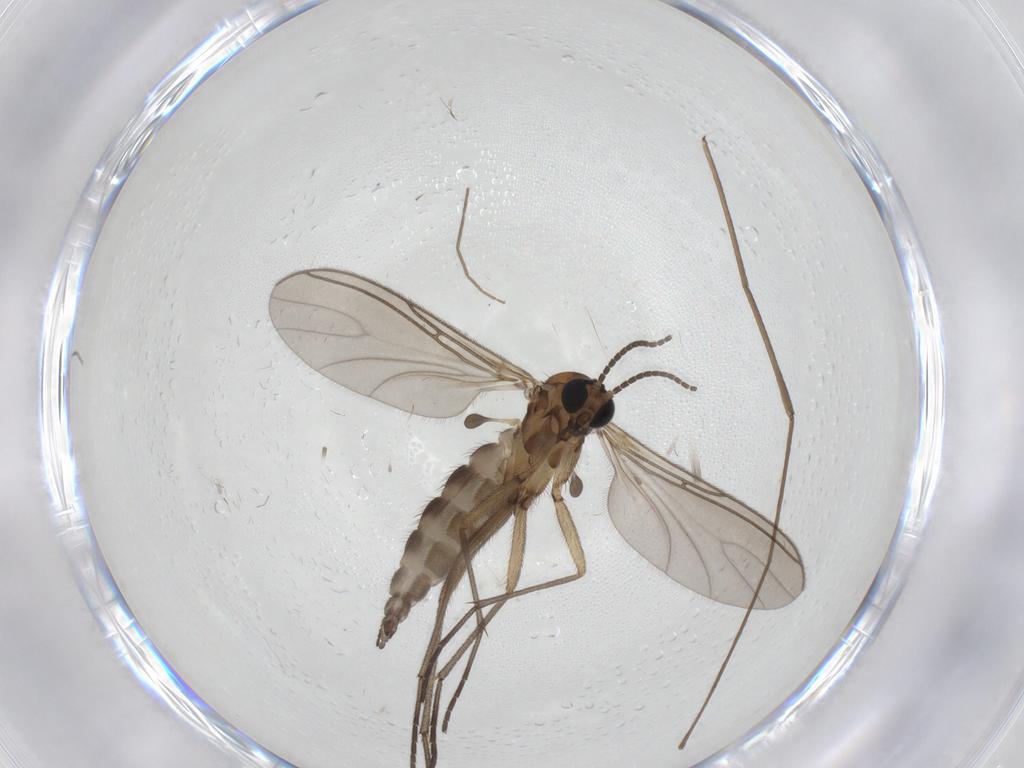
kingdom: Animalia
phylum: Arthropoda
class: Insecta
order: Diptera
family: Sciaridae
